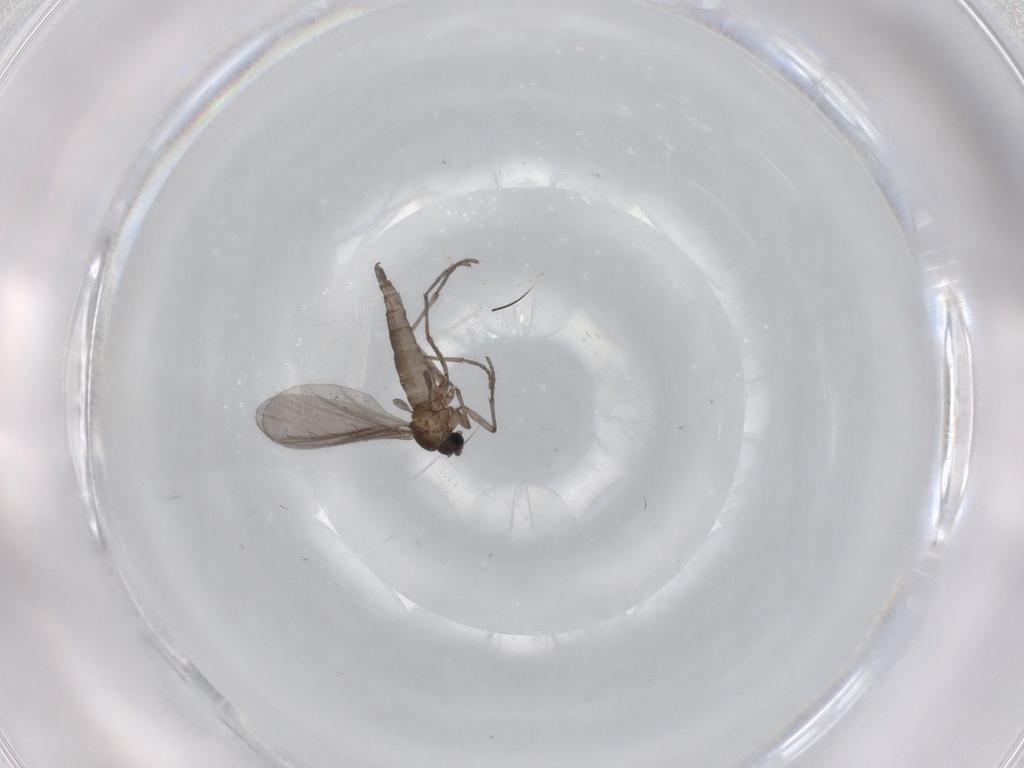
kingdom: Animalia
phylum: Arthropoda
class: Insecta
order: Diptera
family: Sciaridae
